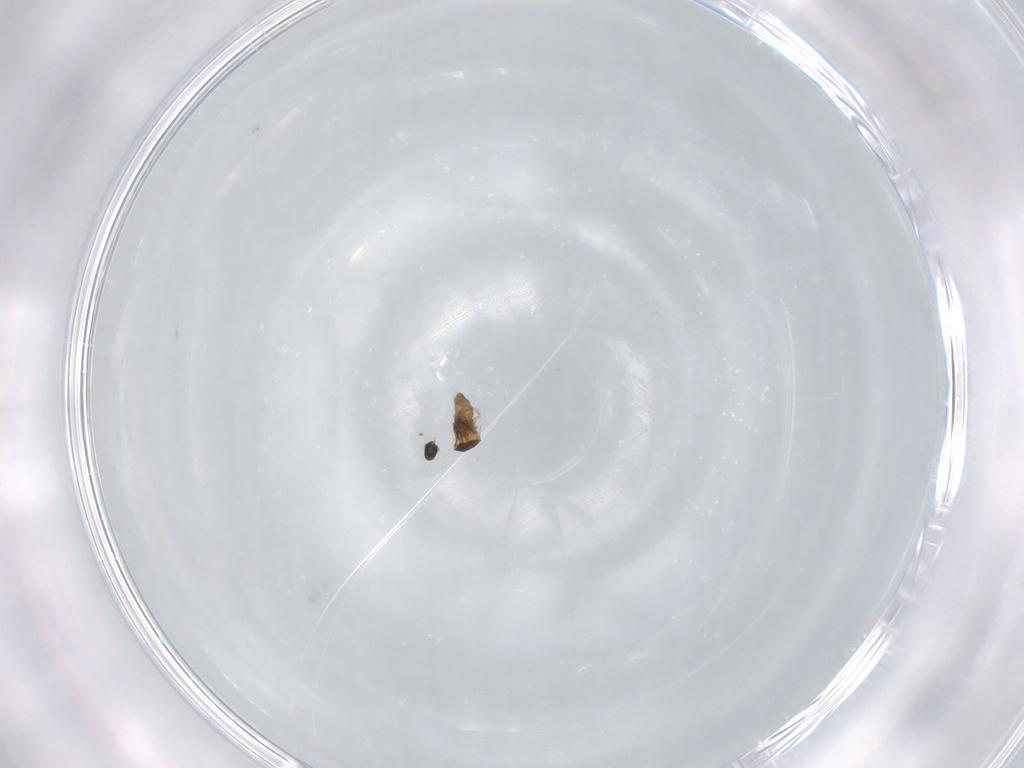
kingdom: Animalia
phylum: Arthropoda
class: Insecta
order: Diptera
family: Cecidomyiidae
